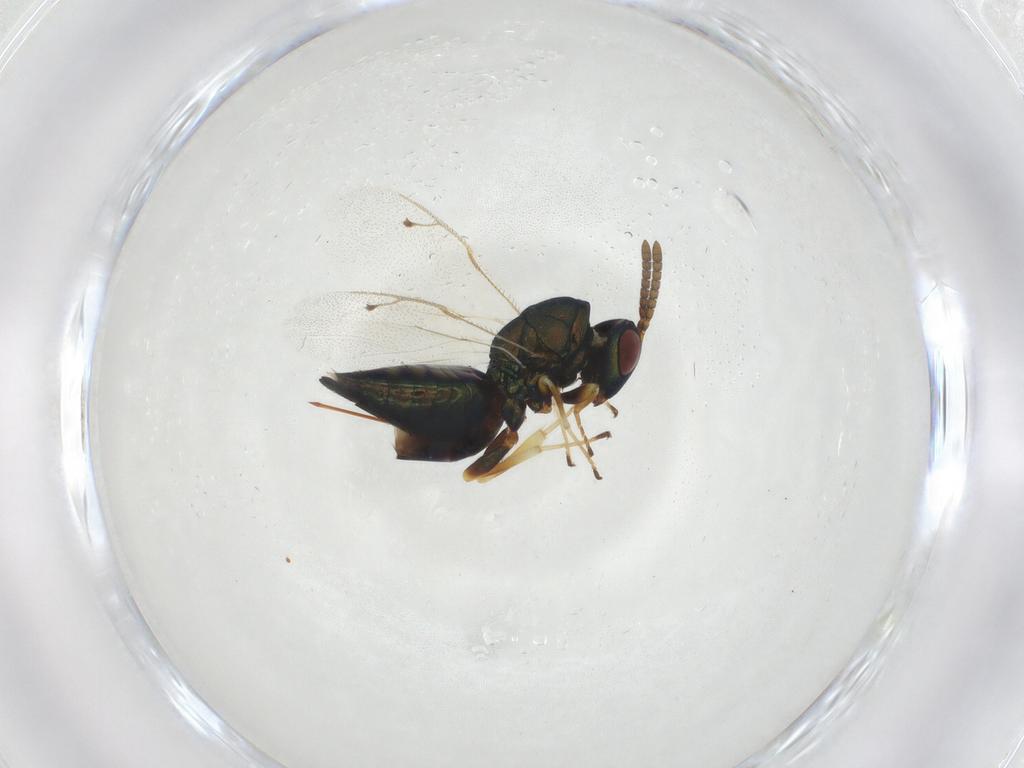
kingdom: Animalia
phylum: Arthropoda
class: Insecta
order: Hymenoptera
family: Pteromalidae
